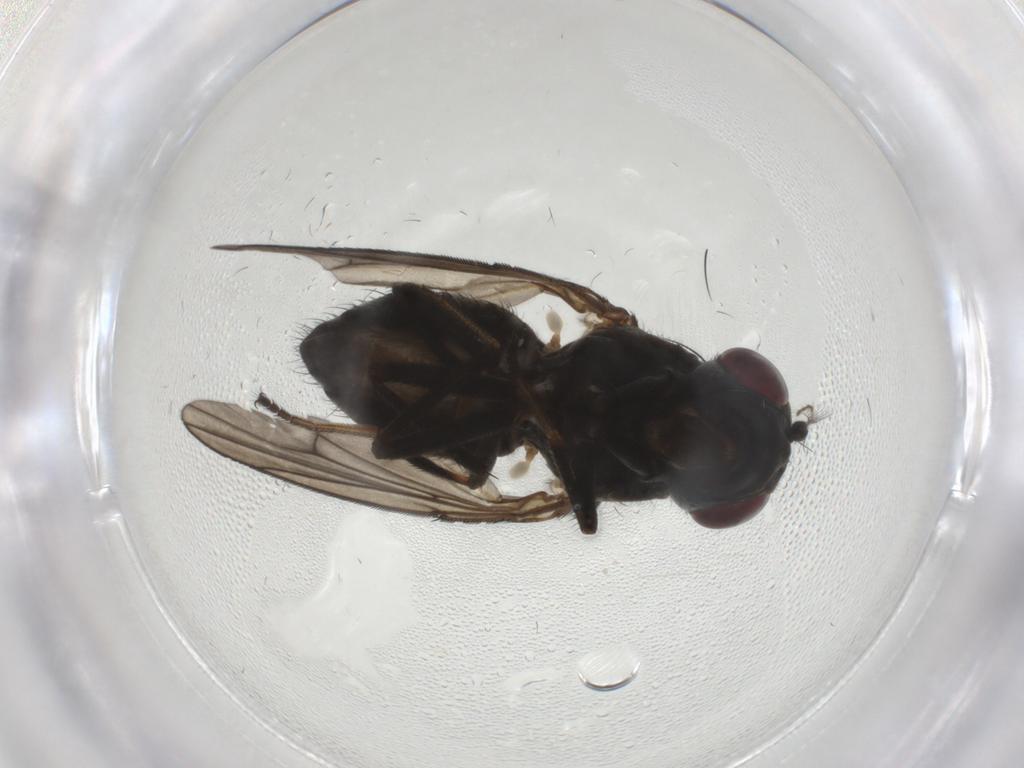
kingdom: Animalia
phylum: Arthropoda
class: Insecta
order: Diptera
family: Phoridae
